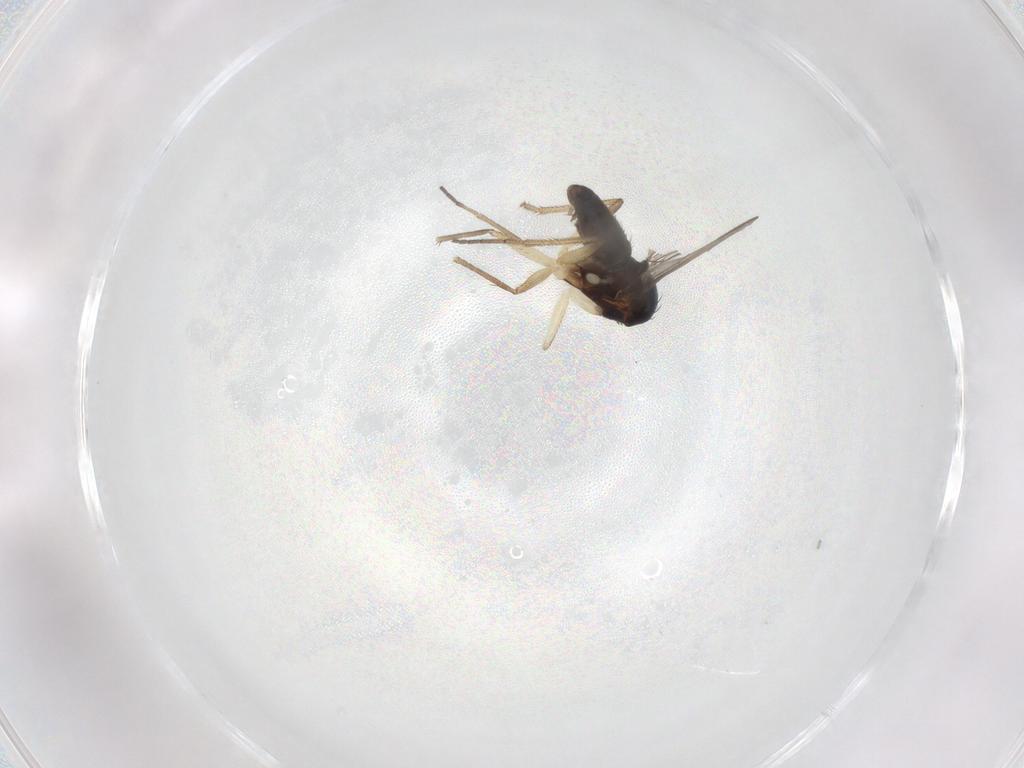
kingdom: Animalia
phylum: Arthropoda
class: Insecta
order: Diptera
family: Dolichopodidae
